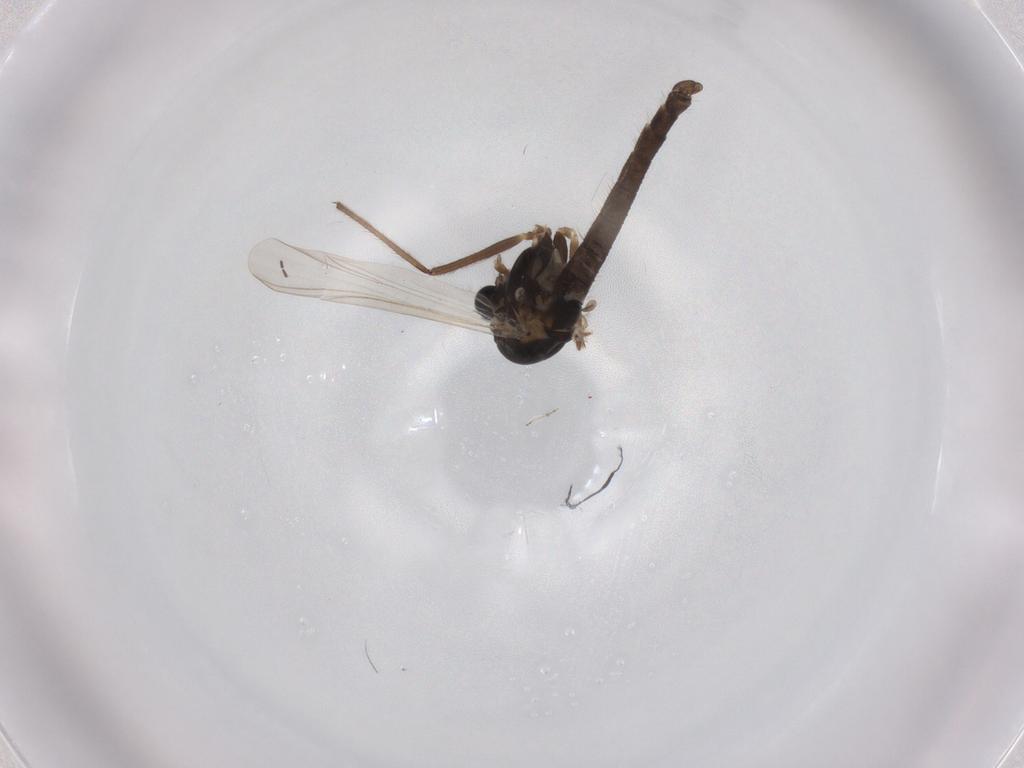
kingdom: Animalia
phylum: Arthropoda
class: Insecta
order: Diptera
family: Chironomidae
